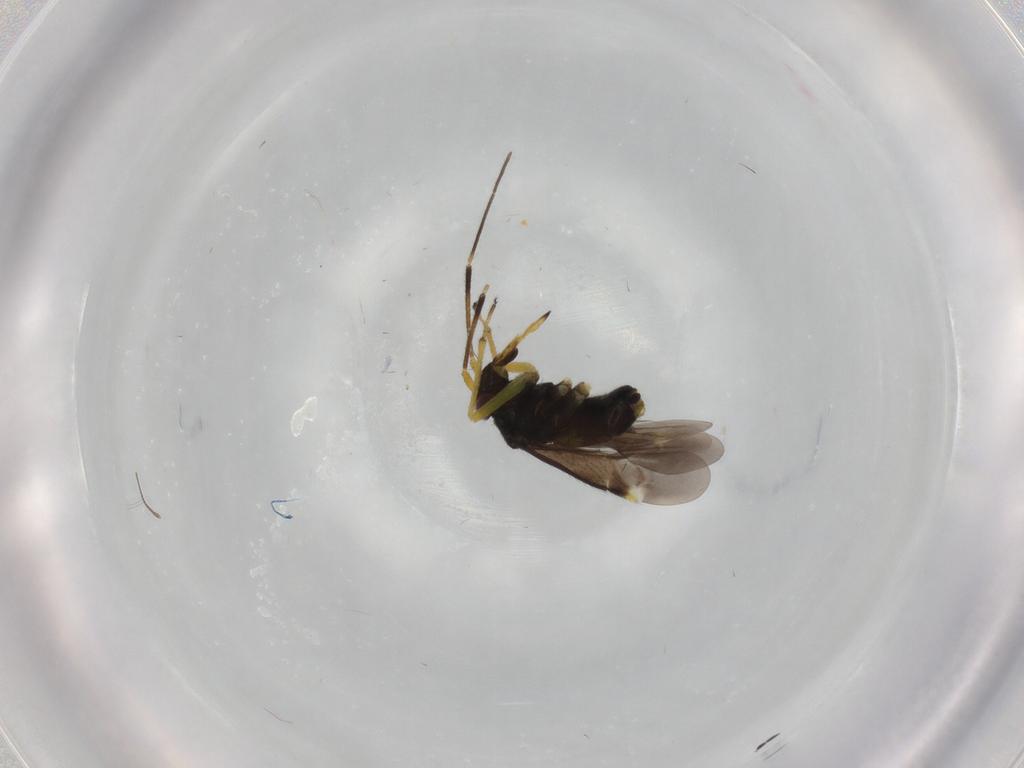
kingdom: Animalia
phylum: Arthropoda
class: Insecta
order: Hemiptera
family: Miridae
